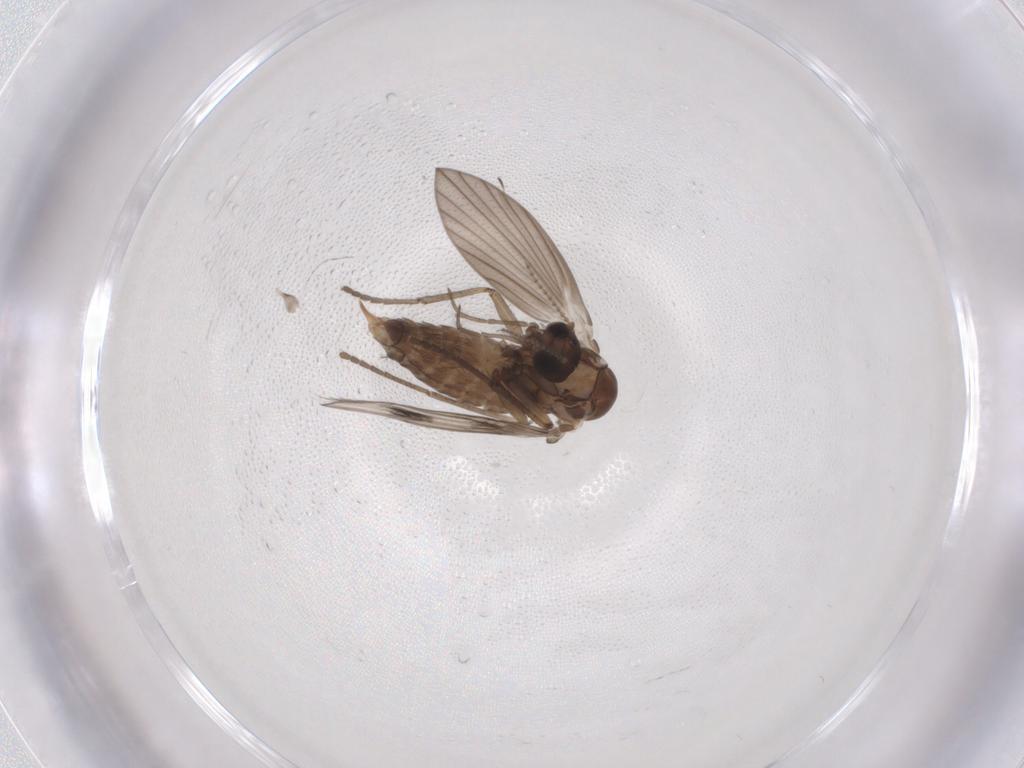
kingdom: Animalia
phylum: Arthropoda
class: Insecta
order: Diptera
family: Psychodidae
